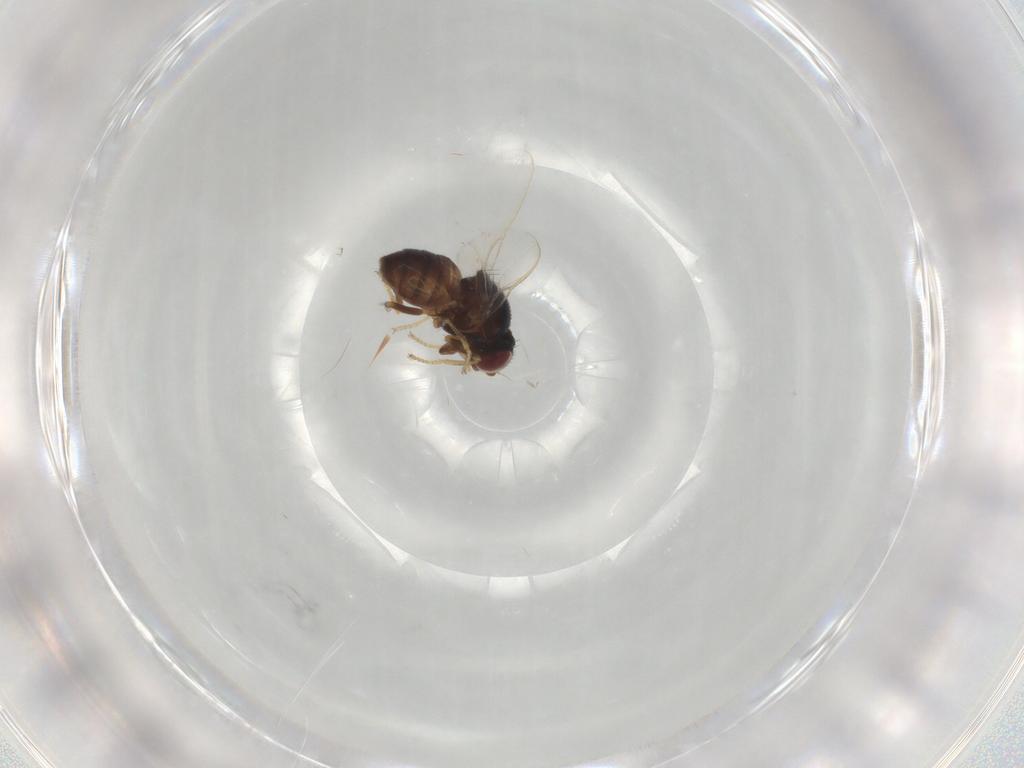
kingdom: Animalia
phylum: Arthropoda
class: Insecta
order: Diptera
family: Chloropidae
